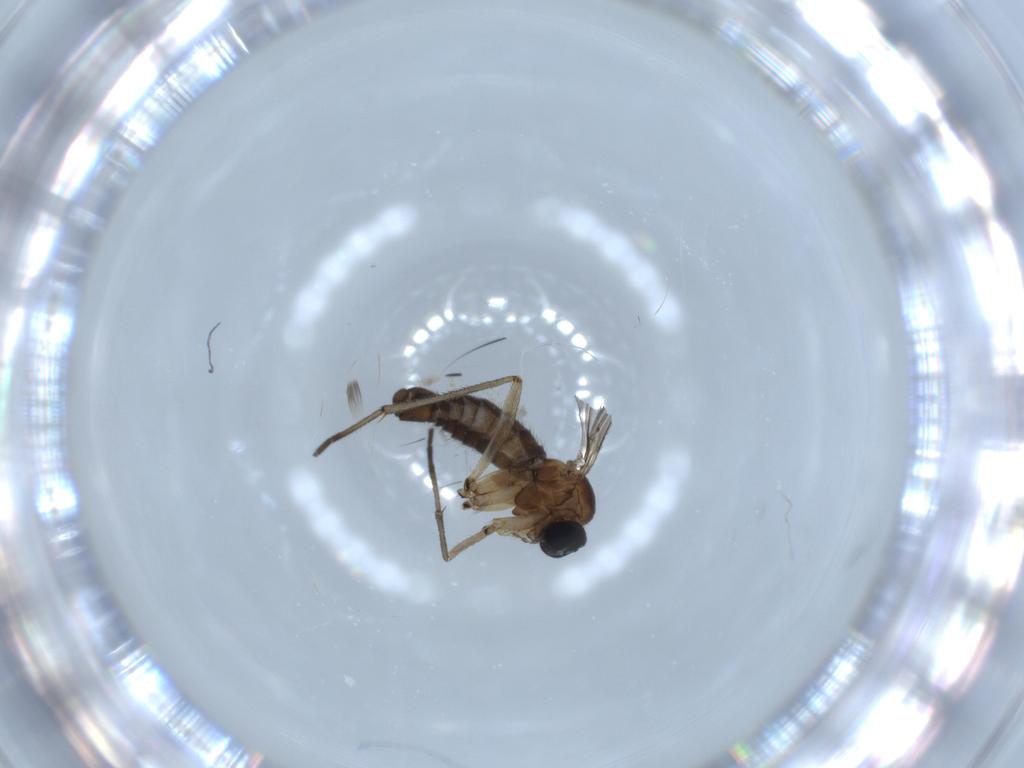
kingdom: Animalia
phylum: Arthropoda
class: Insecta
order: Diptera
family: Sciaridae
